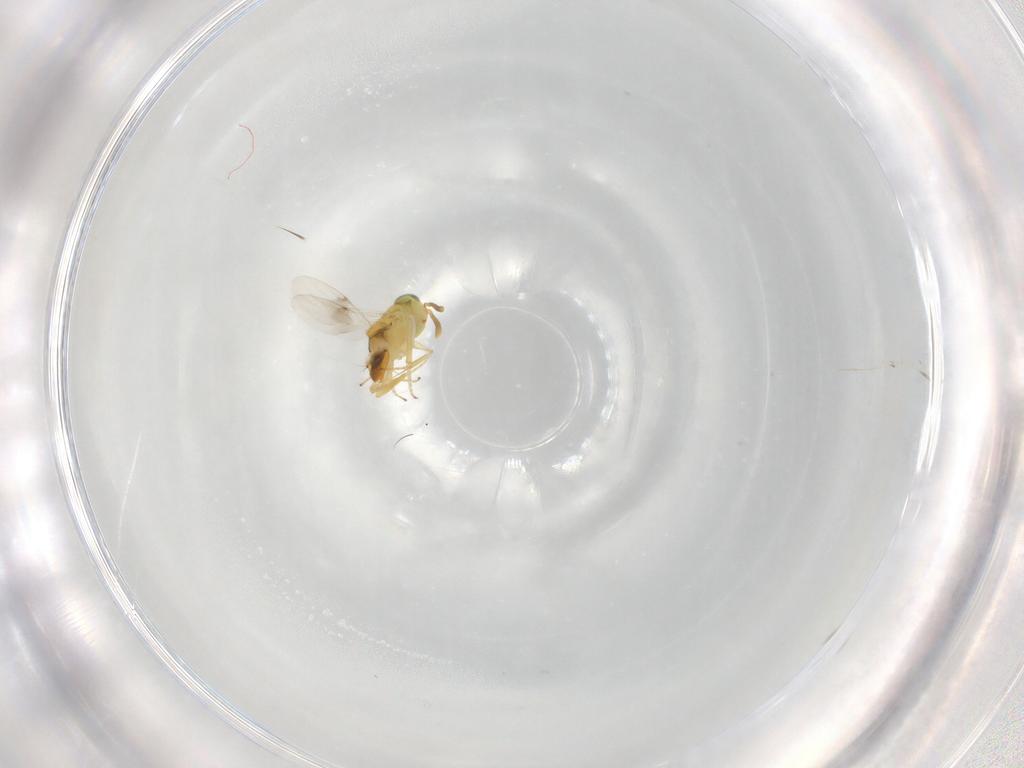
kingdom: Animalia
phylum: Arthropoda
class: Insecta
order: Hymenoptera
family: Encyrtidae
